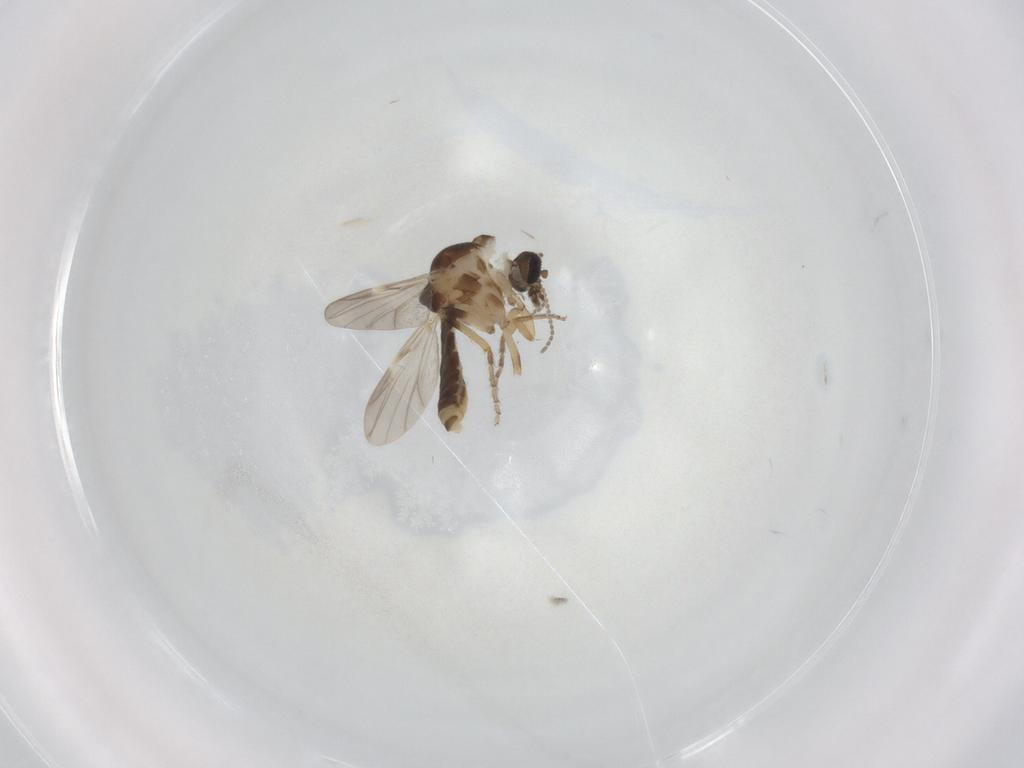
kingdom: Animalia
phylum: Arthropoda
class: Insecta
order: Diptera
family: Ceratopogonidae
